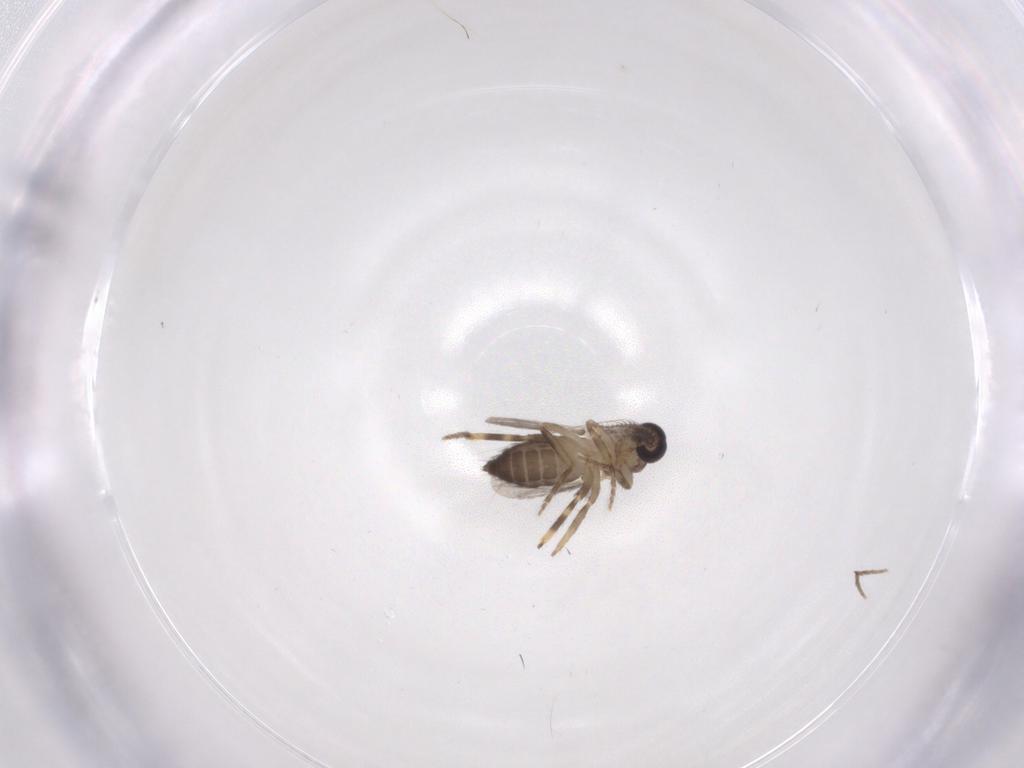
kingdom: Animalia
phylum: Arthropoda
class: Insecta
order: Diptera
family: Ceratopogonidae
